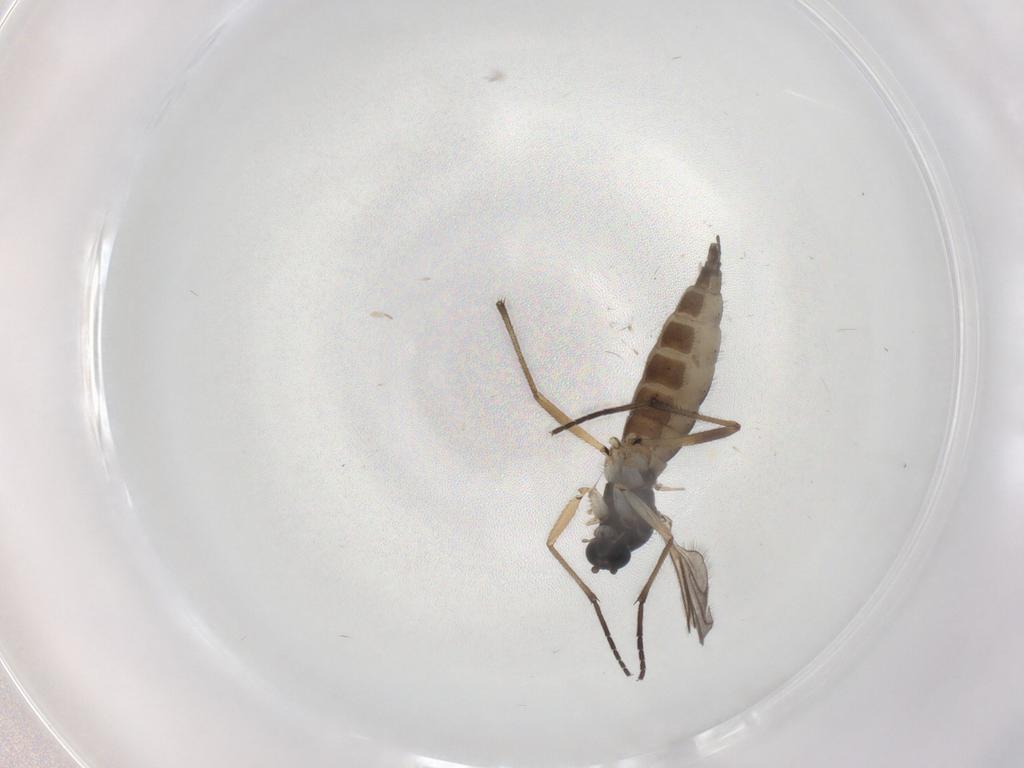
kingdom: Animalia
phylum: Arthropoda
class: Insecta
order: Diptera
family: Sciaridae
